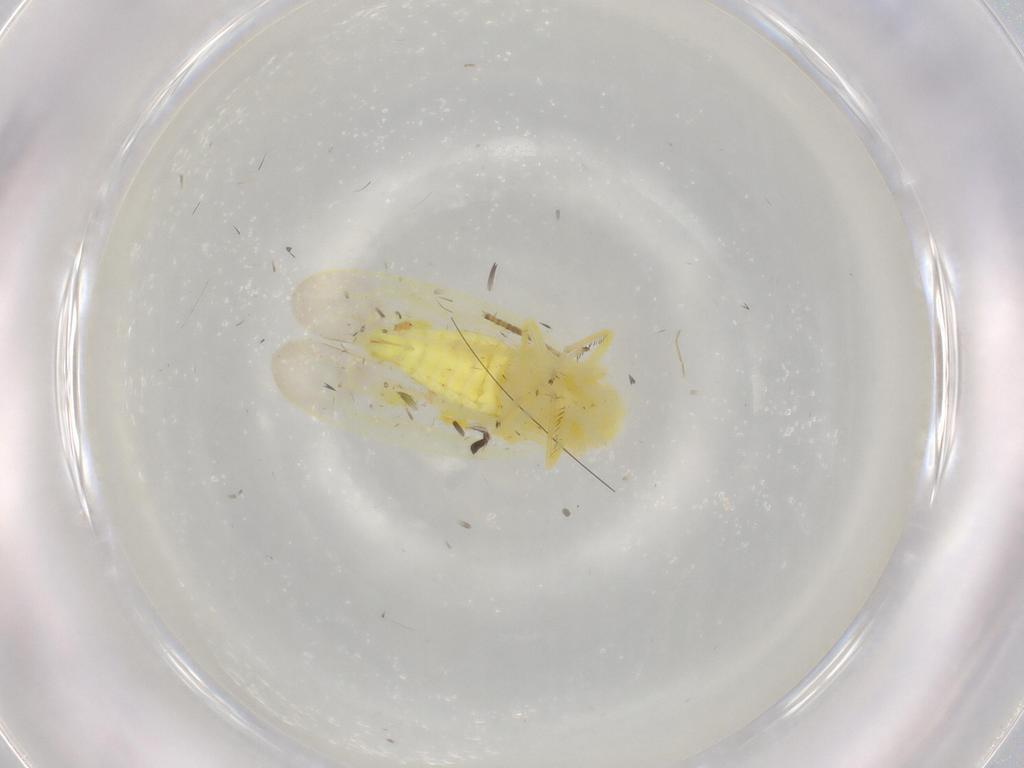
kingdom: Animalia
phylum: Arthropoda
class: Insecta
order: Hemiptera
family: Cicadellidae
